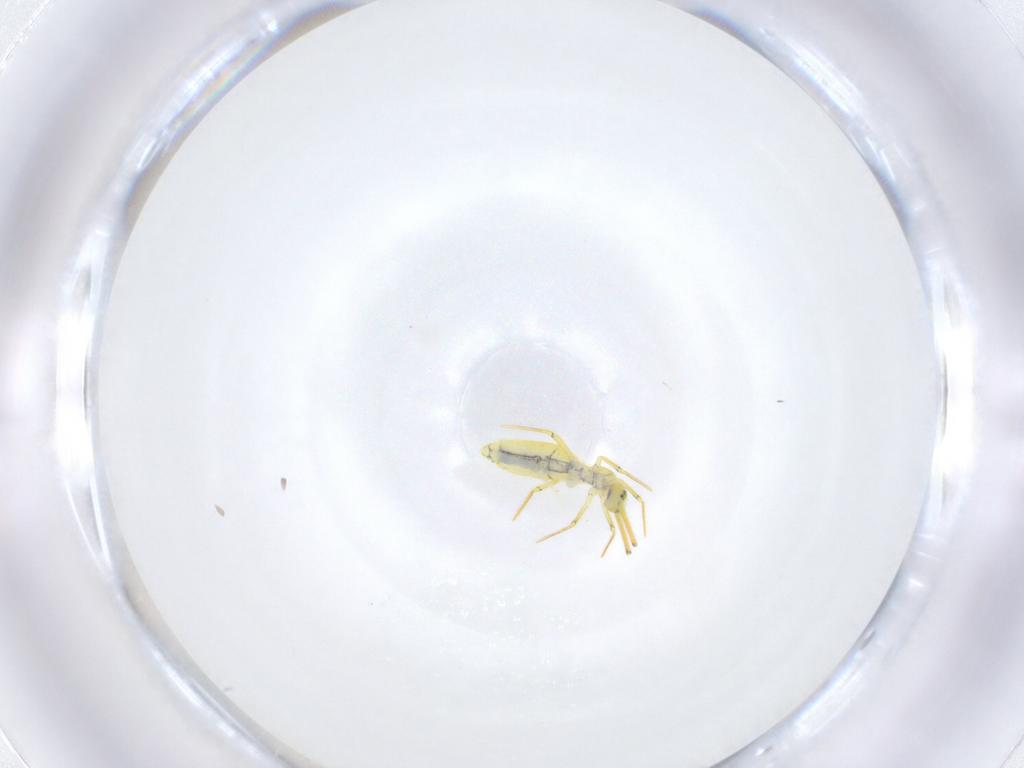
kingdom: Animalia
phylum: Arthropoda
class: Collembola
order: Entomobryomorpha
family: Entomobryidae
